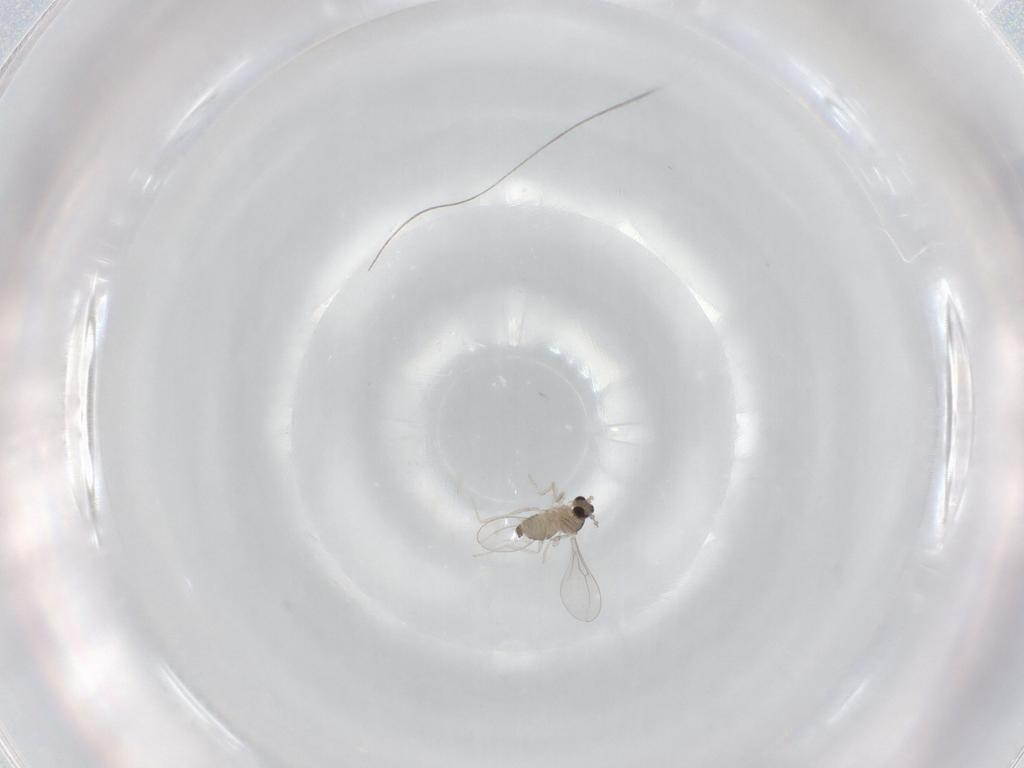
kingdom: Animalia
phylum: Arthropoda
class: Insecta
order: Diptera
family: Cecidomyiidae
